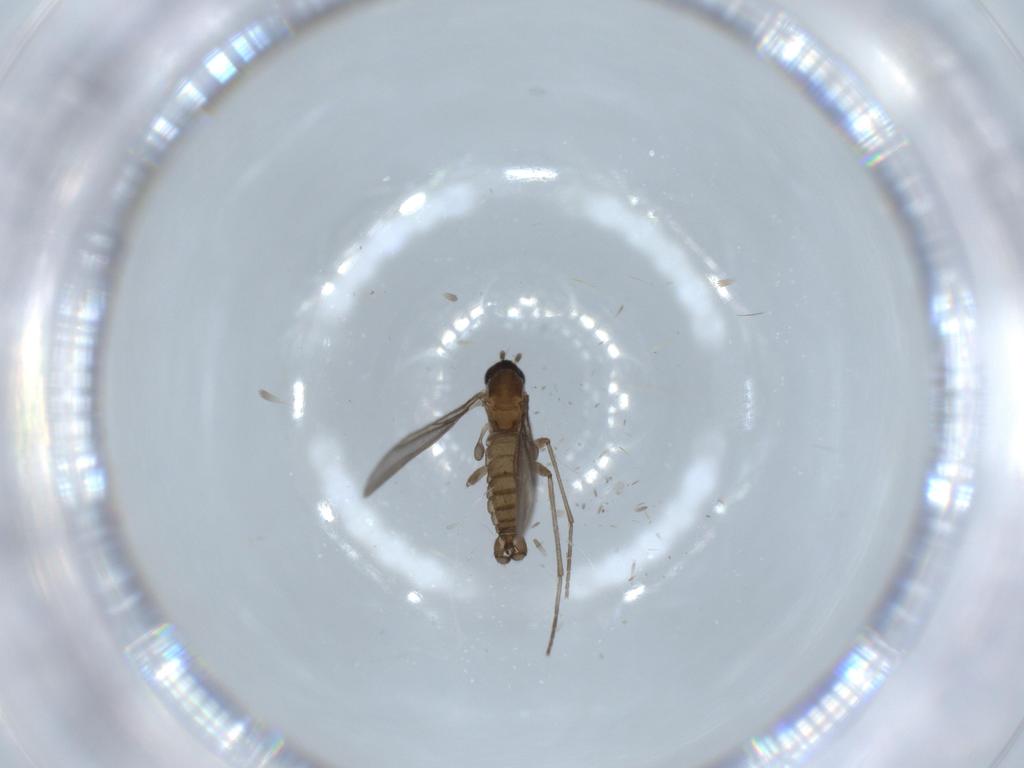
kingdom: Animalia
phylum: Arthropoda
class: Insecta
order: Diptera
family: Sciaridae
